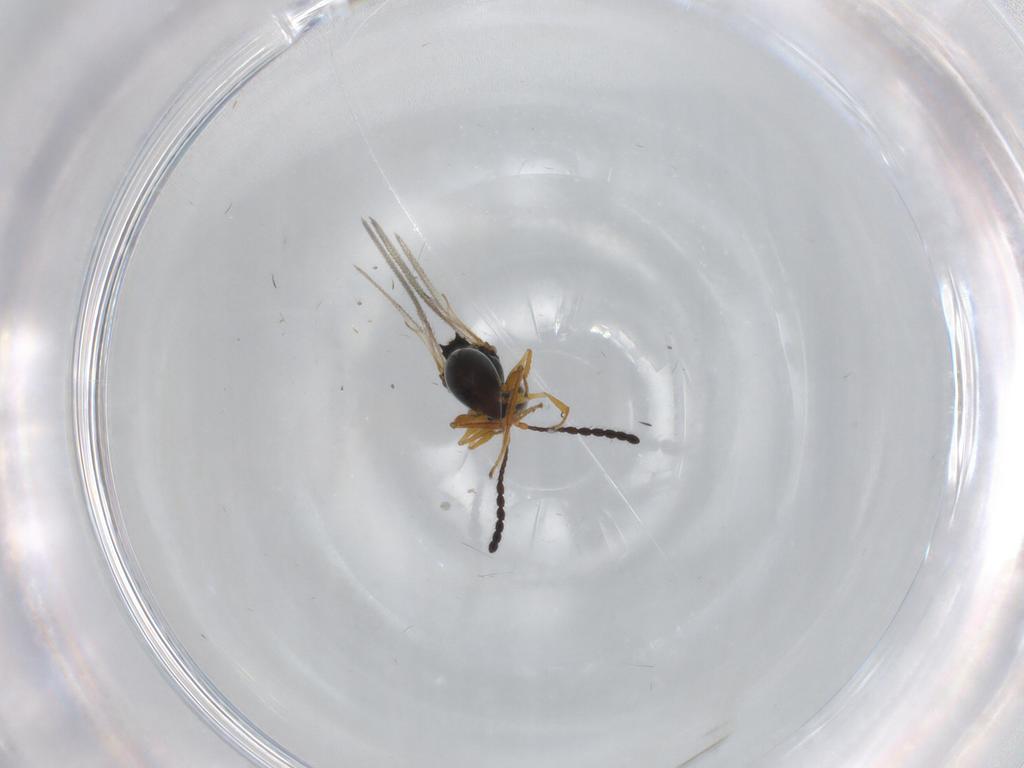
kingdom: Animalia
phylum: Arthropoda
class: Insecta
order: Hymenoptera
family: Figitidae
